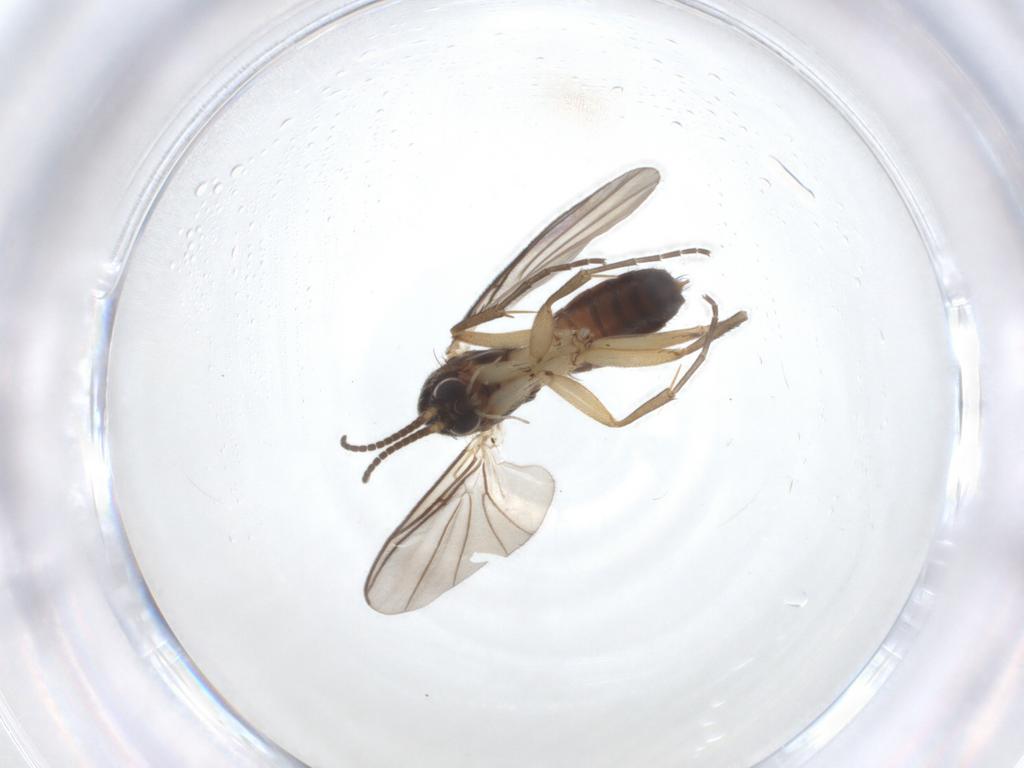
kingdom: Animalia
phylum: Arthropoda
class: Insecta
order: Diptera
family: Mycetophilidae
